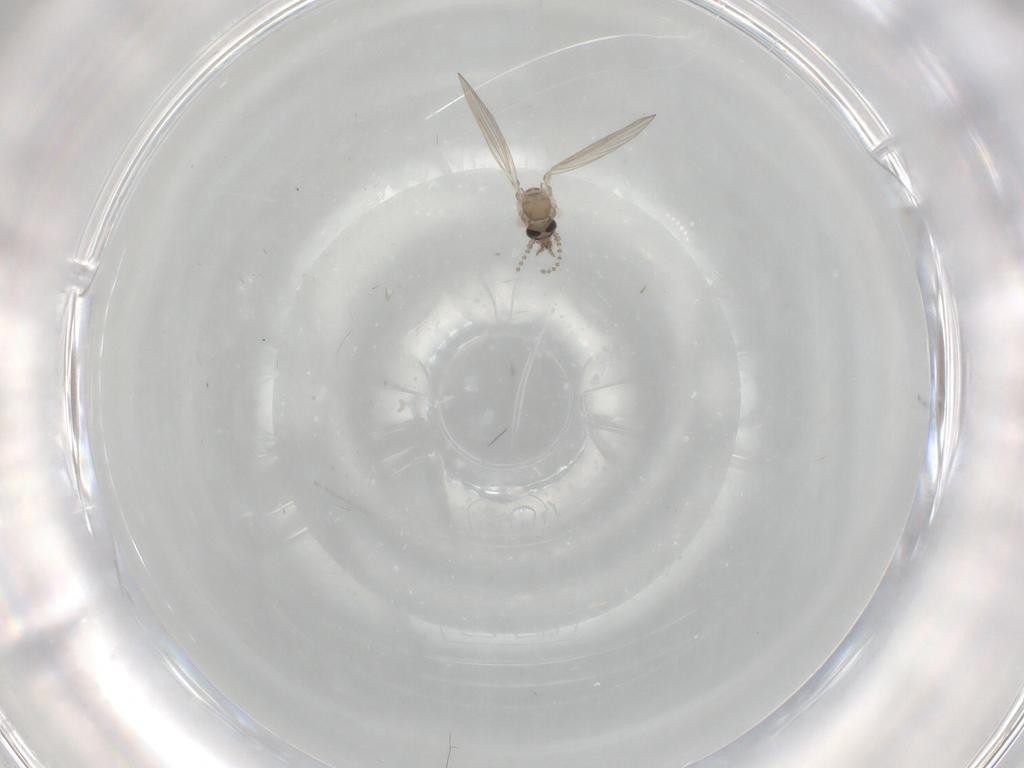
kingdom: Animalia
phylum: Arthropoda
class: Insecta
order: Diptera
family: Psychodidae
